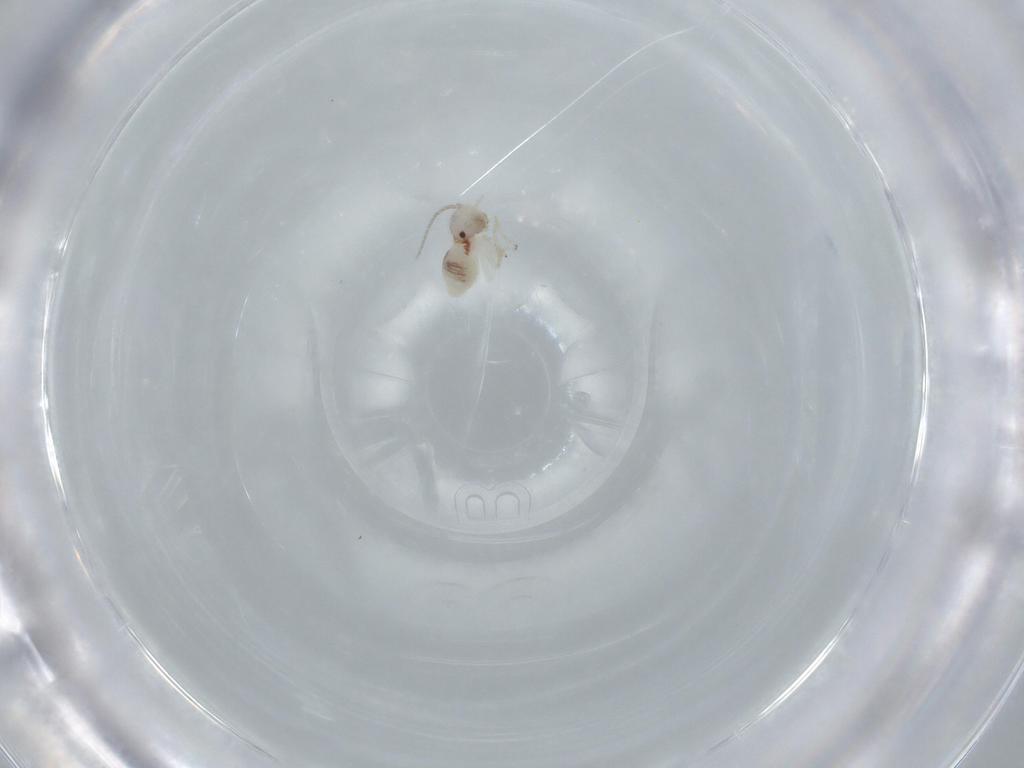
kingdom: Animalia
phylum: Arthropoda
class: Insecta
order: Psocodea
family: Caeciliusidae
